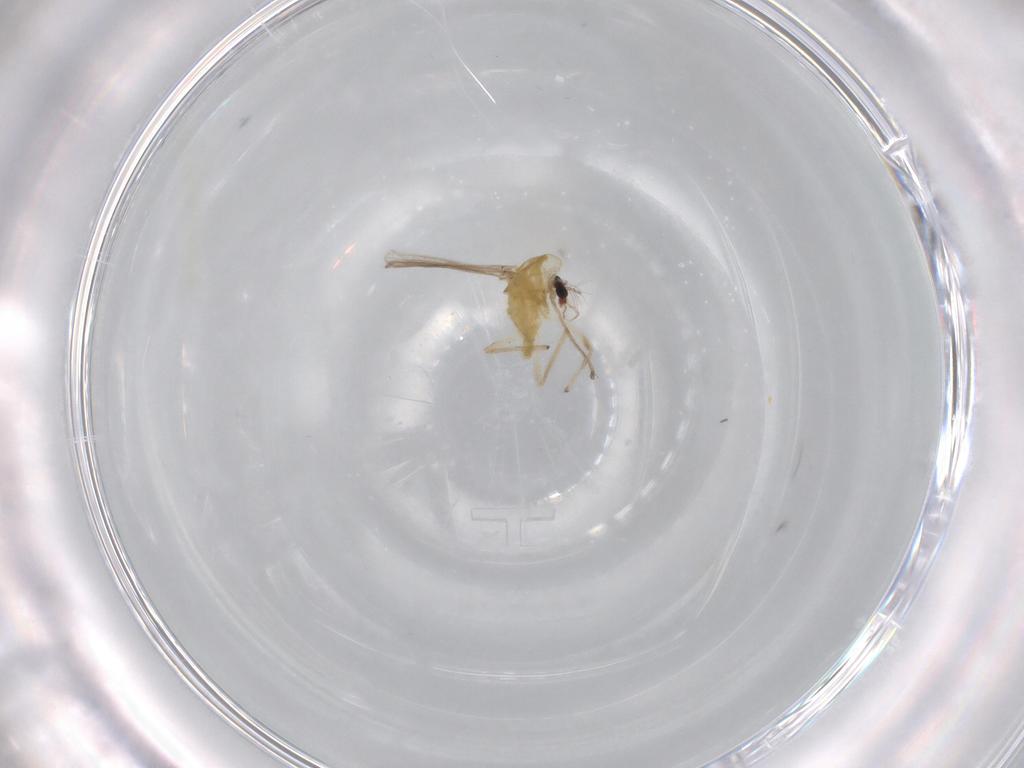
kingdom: Animalia
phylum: Arthropoda
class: Insecta
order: Diptera
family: Chironomidae
